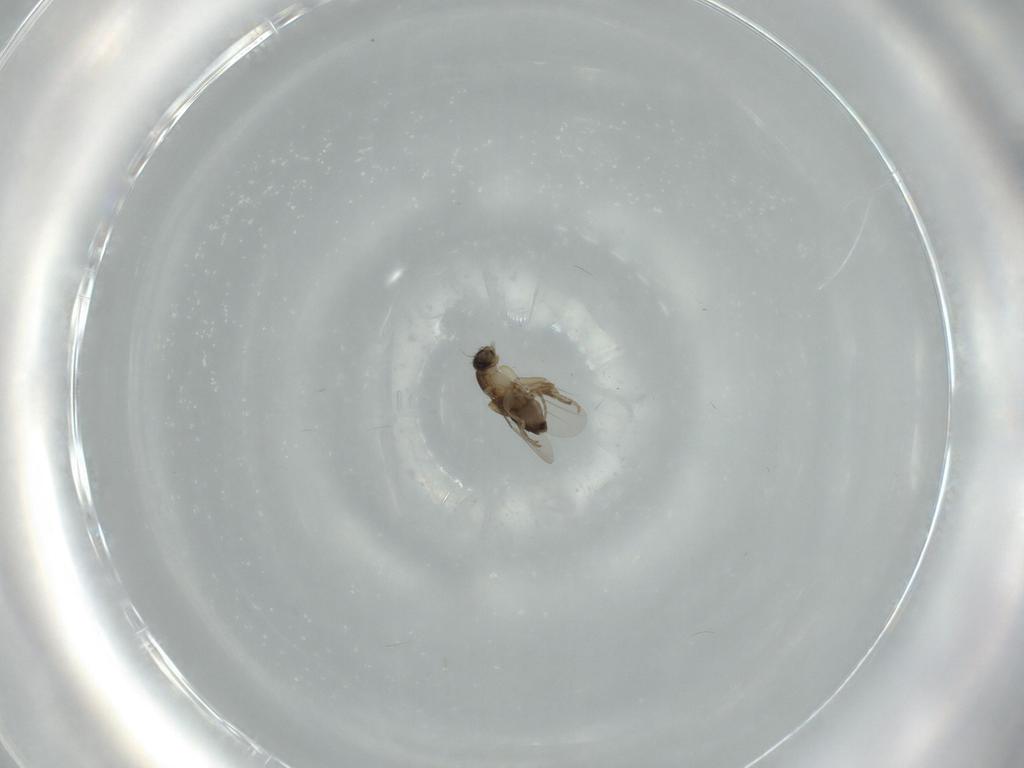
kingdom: Animalia
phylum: Arthropoda
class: Insecta
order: Diptera
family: Phoridae
